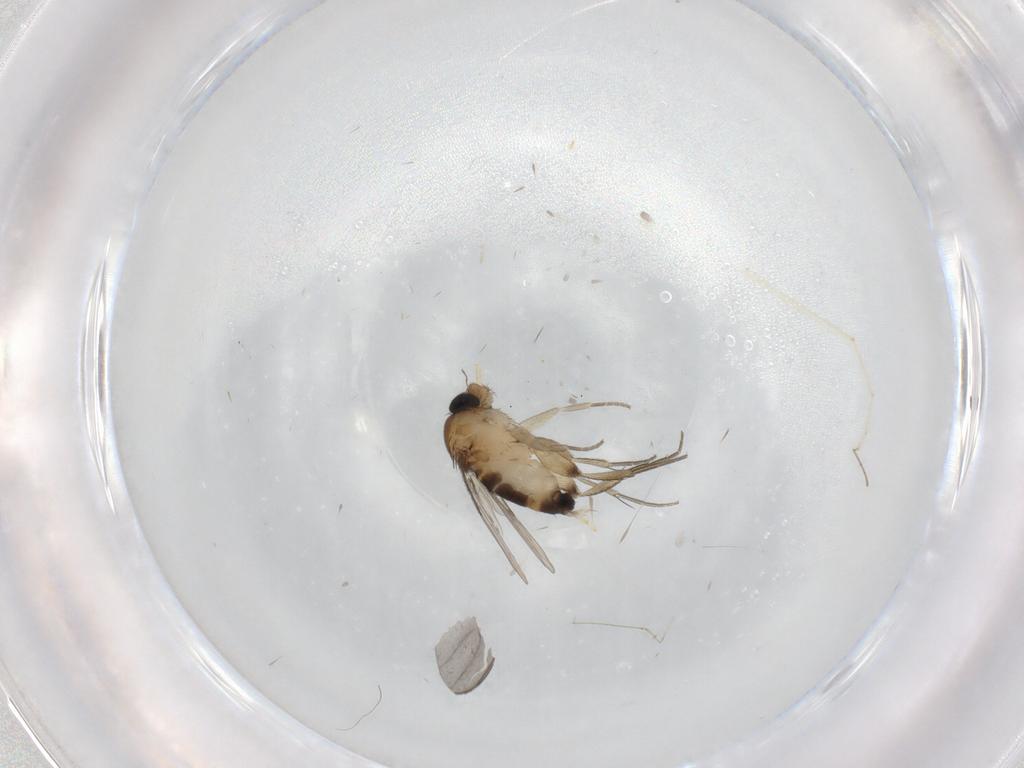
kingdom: Animalia
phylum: Arthropoda
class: Insecta
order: Diptera
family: Phoridae
